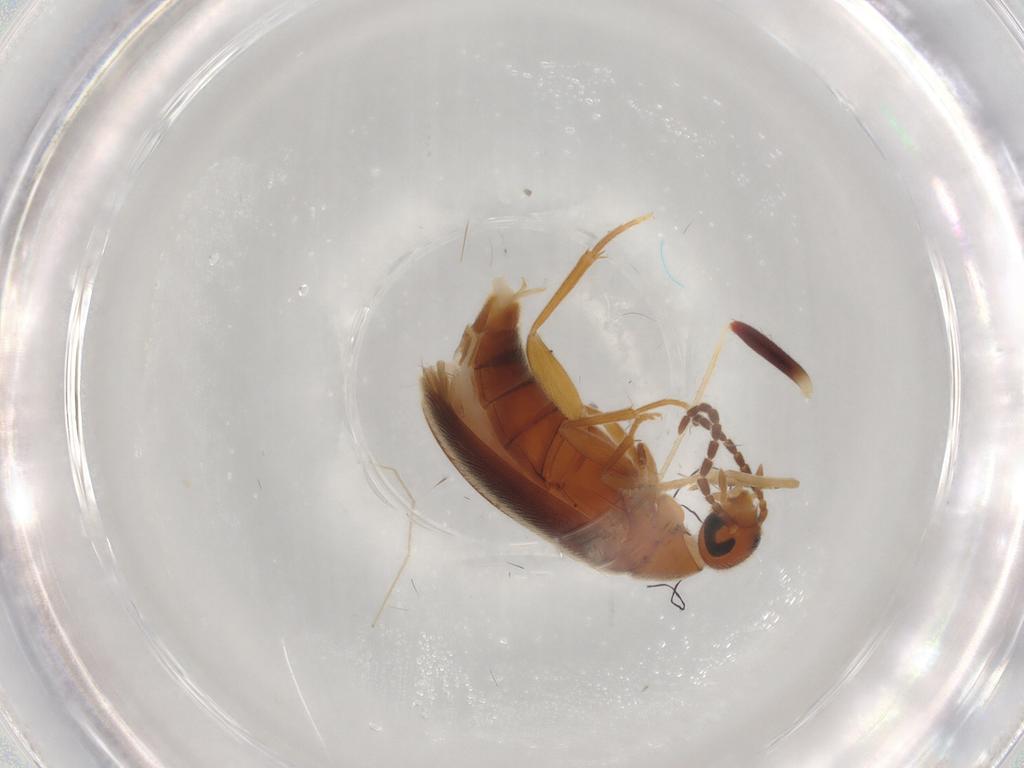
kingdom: Animalia
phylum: Arthropoda
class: Insecta
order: Coleoptera
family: Scraptiidae
